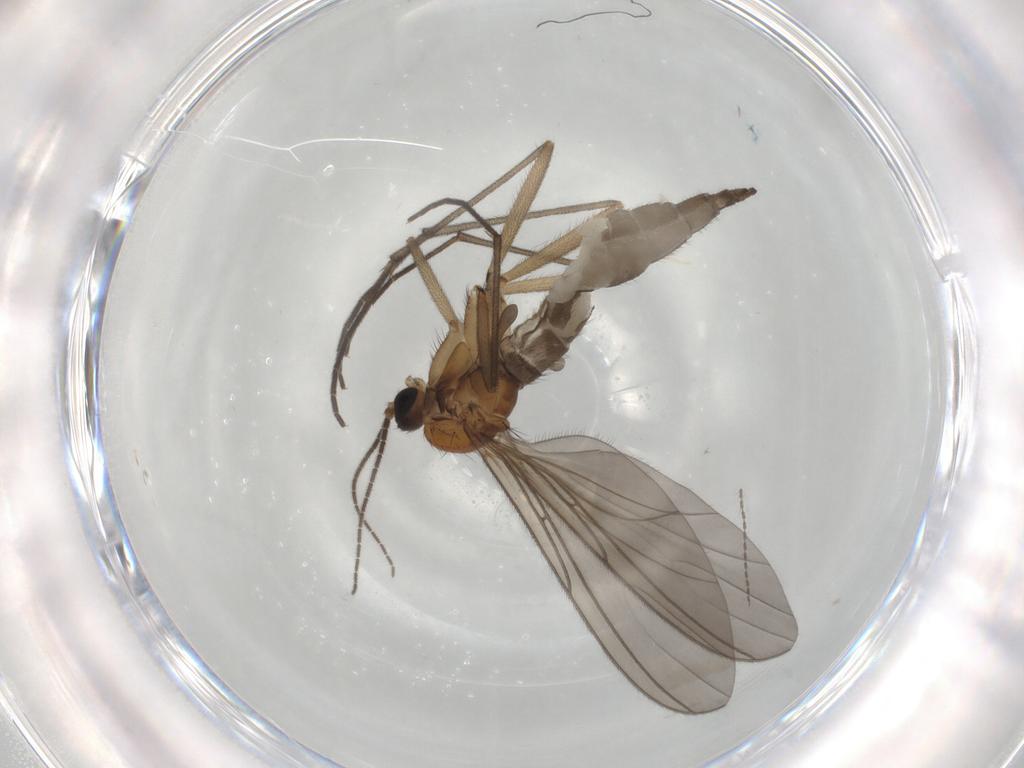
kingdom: Animalia
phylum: Arthropoda
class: Insecta
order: Diptera
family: Sciaridae
